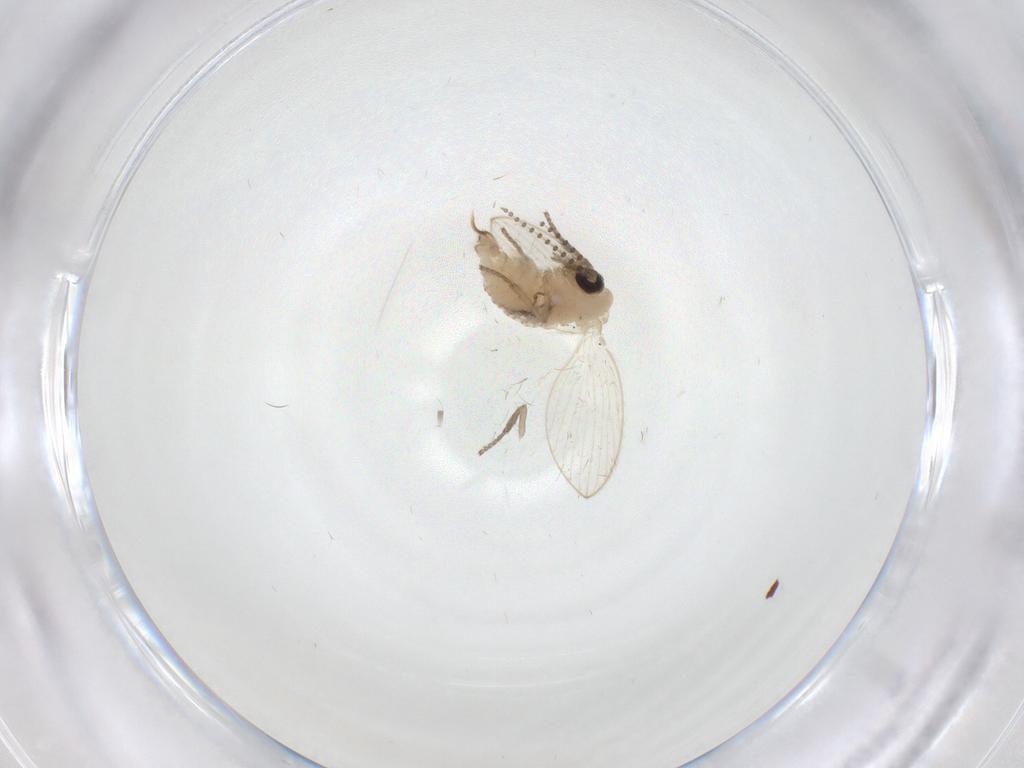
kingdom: Animalia
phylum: Arthropoda
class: Insecta
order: Diptera
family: Psychodidae
